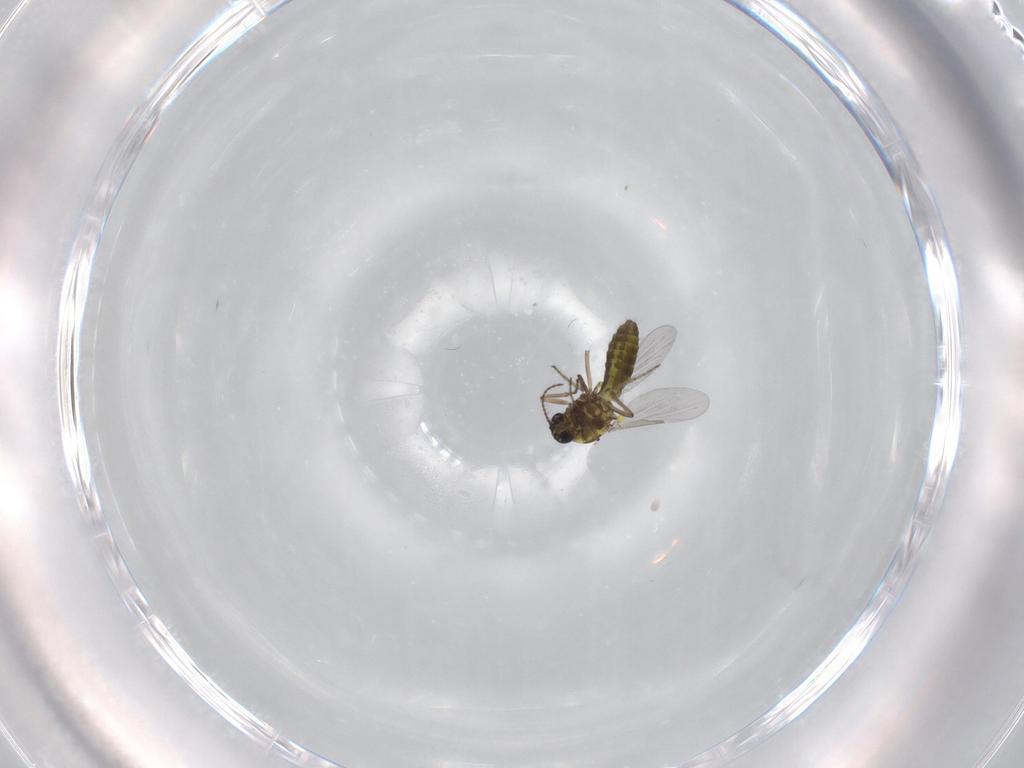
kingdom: Animalia
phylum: Arthropoda
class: Insecta
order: Diptera
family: Ceratopogonidae
